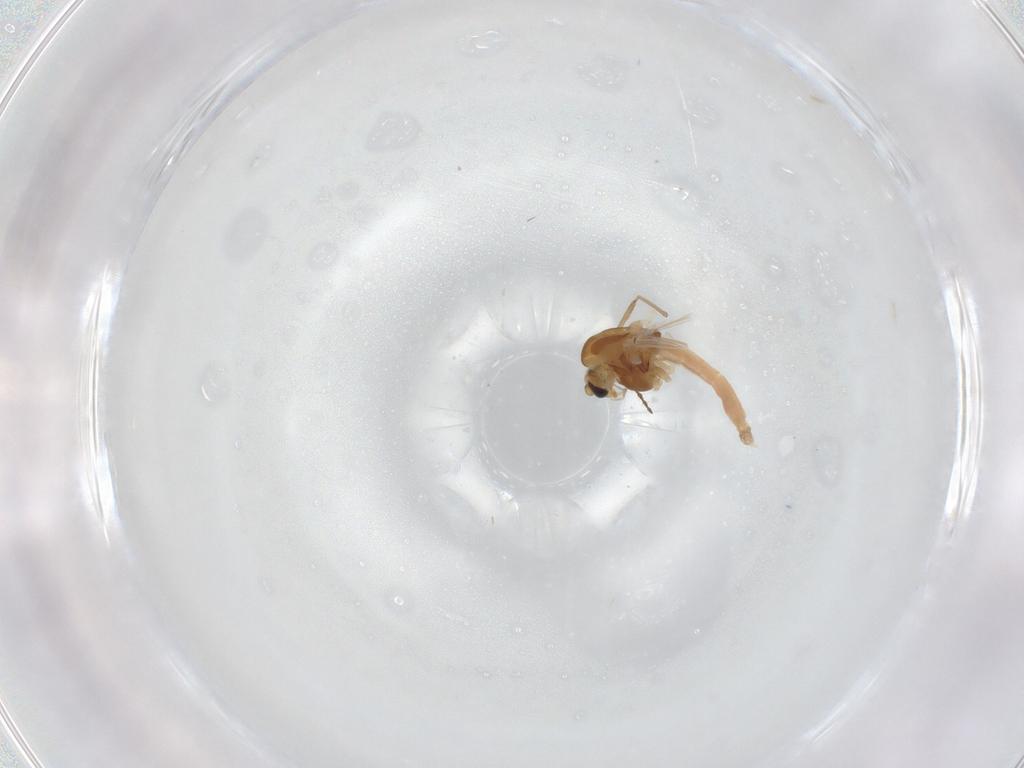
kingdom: Animalia
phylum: Arthropoda
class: Insecta
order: Diptera
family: Chironomidae
